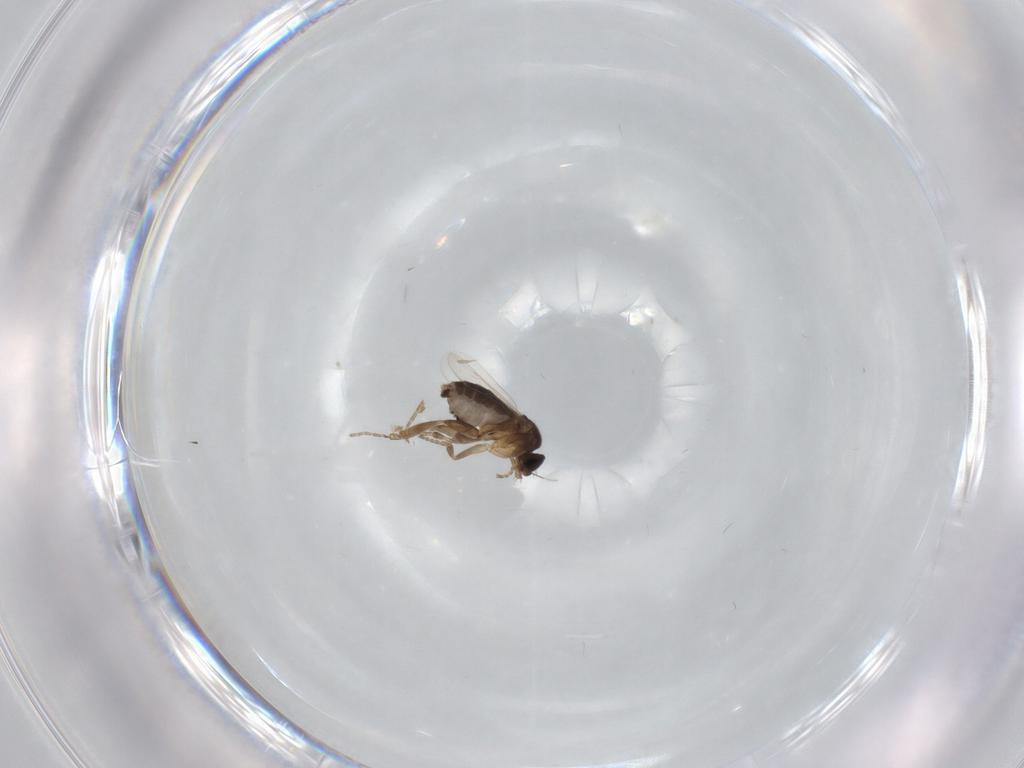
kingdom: Animalia
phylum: Arthropoda
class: Insecta
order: Diptera
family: Phoridae
